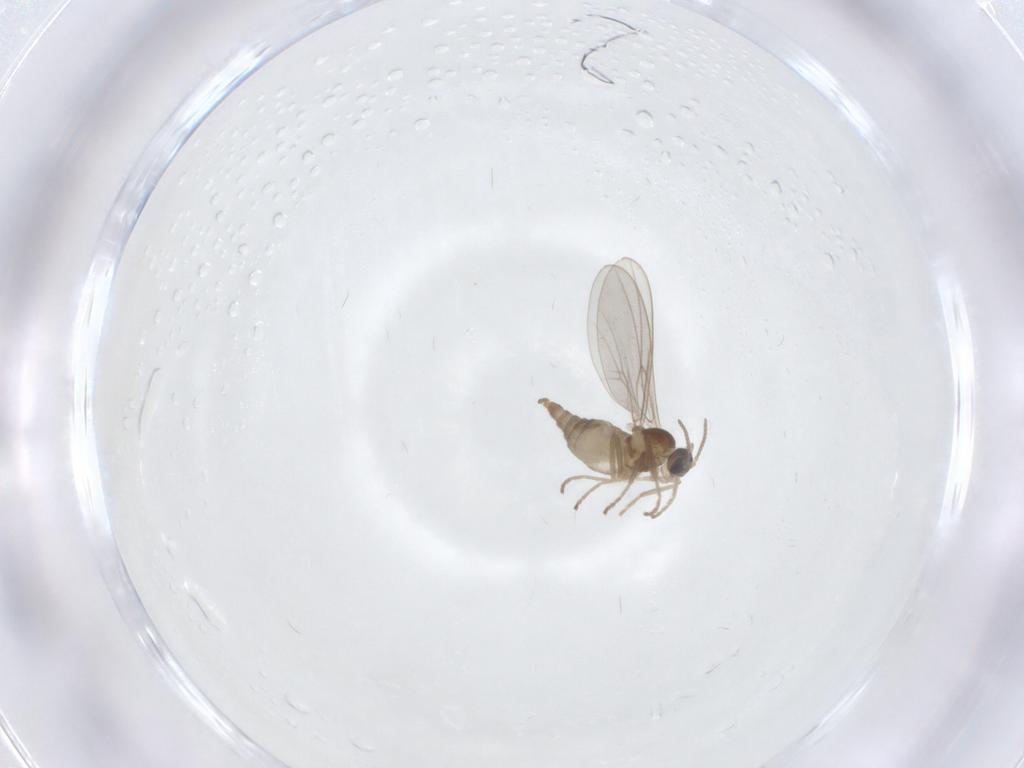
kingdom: Animalia
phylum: Arthropoda
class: Insecta
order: Diptera
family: Cecidomyiidae
